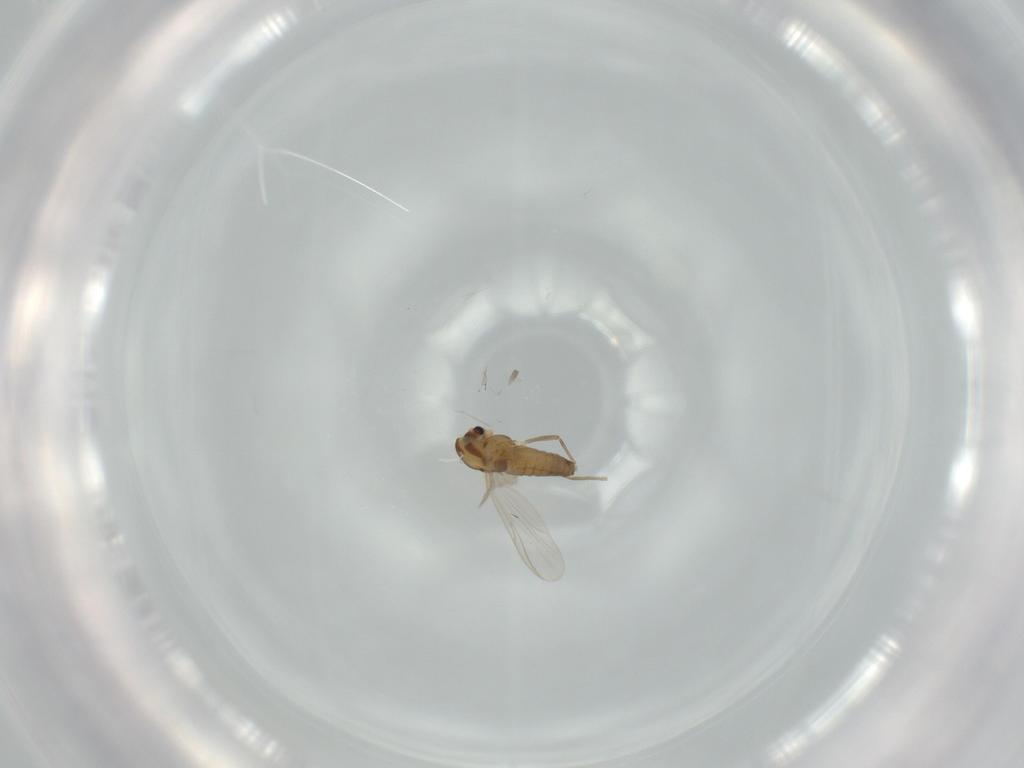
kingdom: Animalia
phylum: Arthropoda
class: Insecta
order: Diptera
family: Chironomidae
